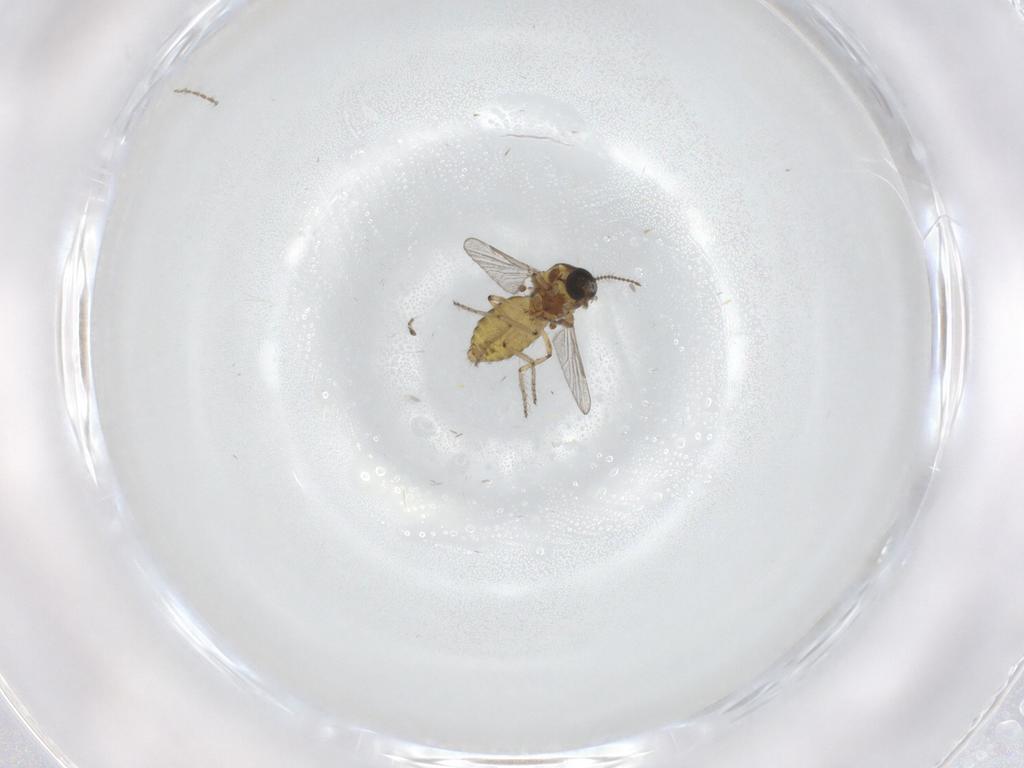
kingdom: Animalia
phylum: Arthropoda
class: Insecta
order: Diptera
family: Ceratopogonidae
